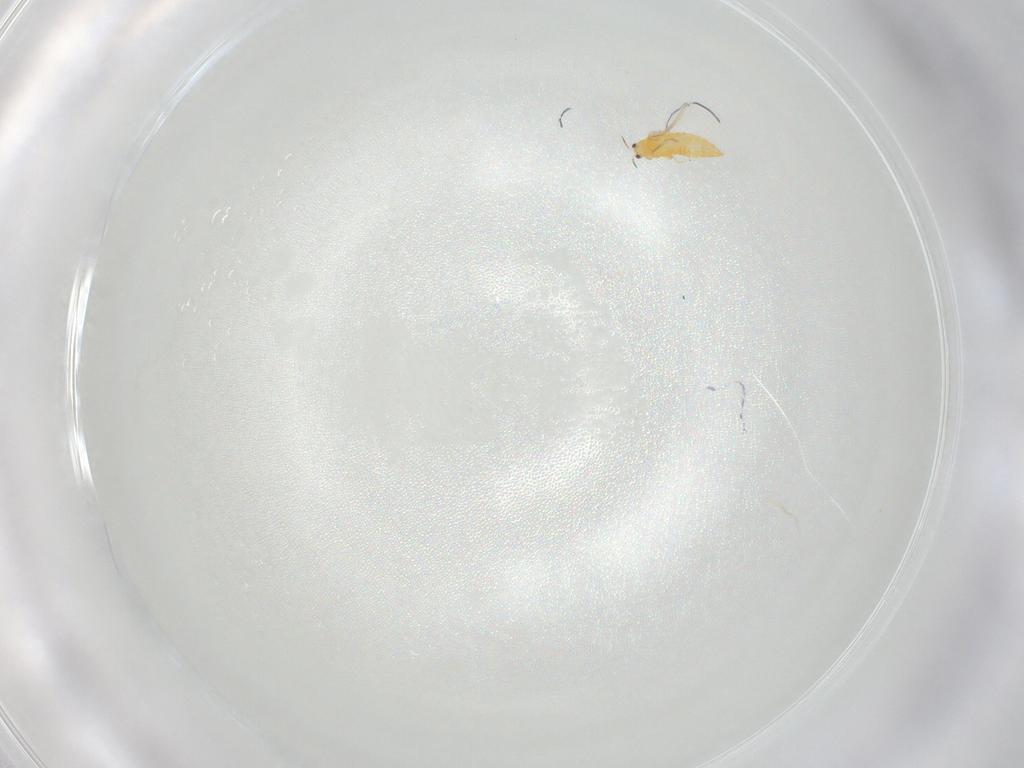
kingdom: Animalia
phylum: Arthropoda
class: Insecta
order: Thysanoptera
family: Thripidae
